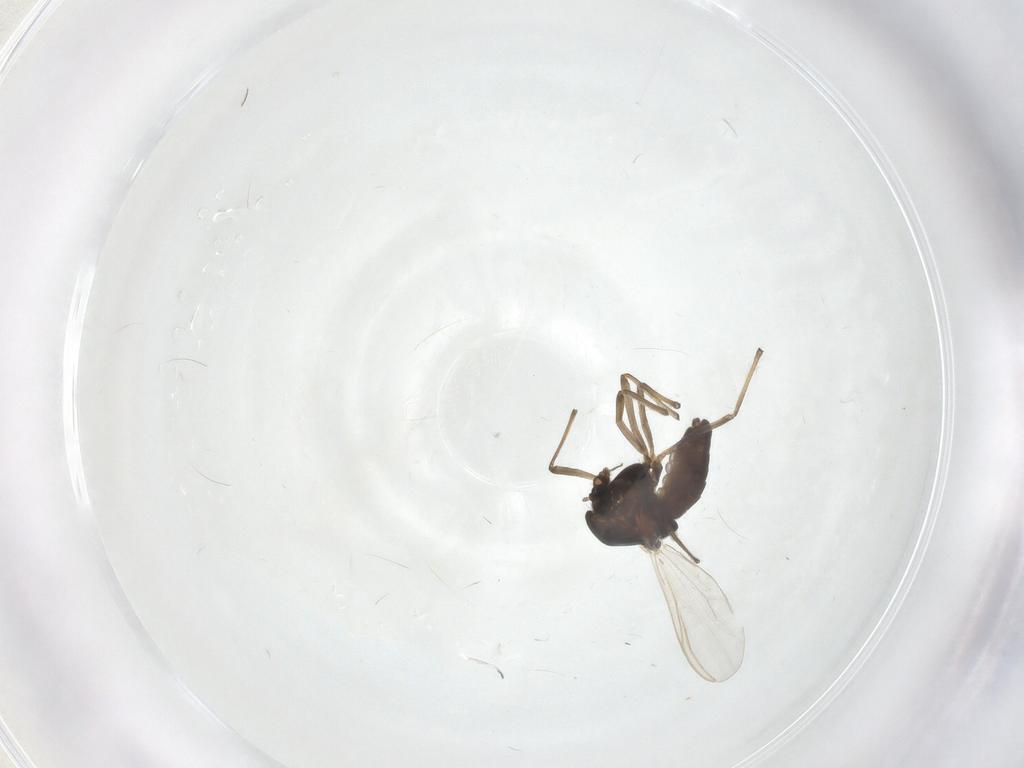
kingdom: Animalia
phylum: Arthropoda
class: Insecta
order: Diptera
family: Chironomidae
